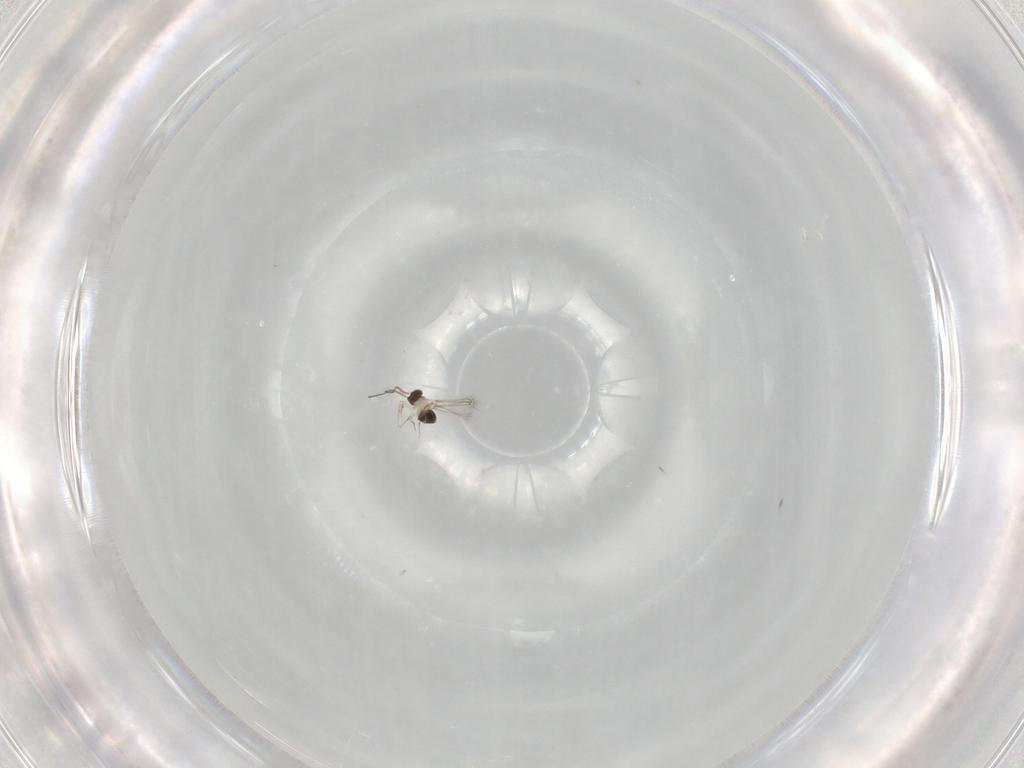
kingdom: Animalia
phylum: Arthropoda
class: Insecta
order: Hymenoptera
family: Mymaridae
